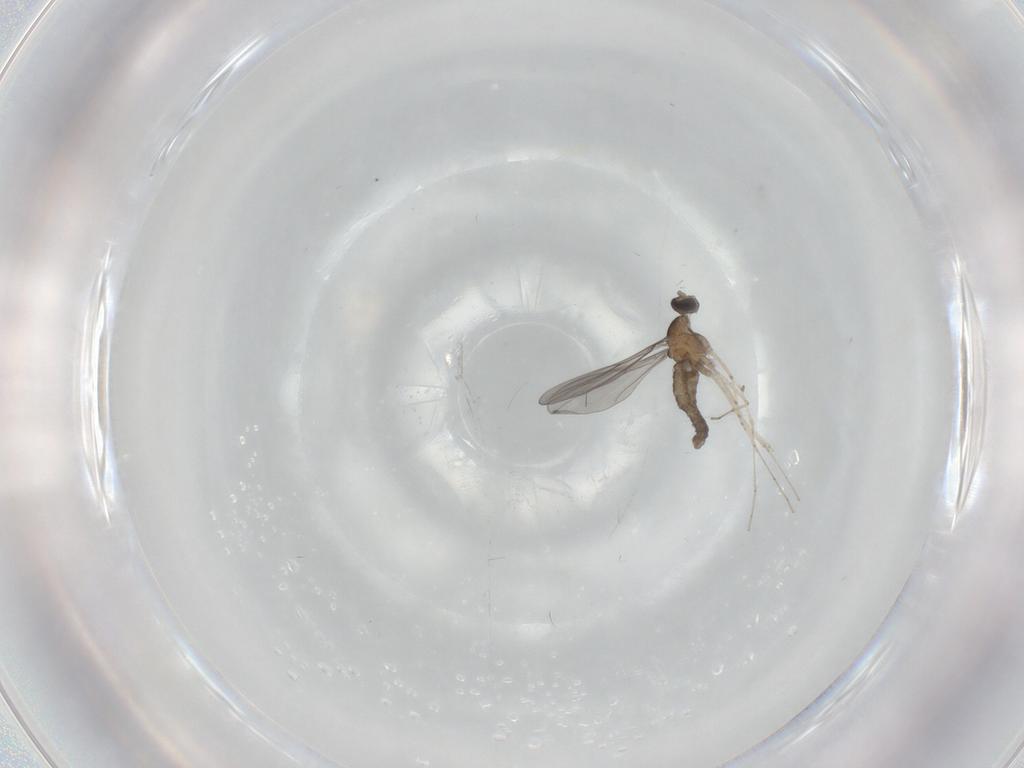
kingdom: Animalia
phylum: Arthropoda
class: Insecta
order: Diptera
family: Cecidomyiidae
